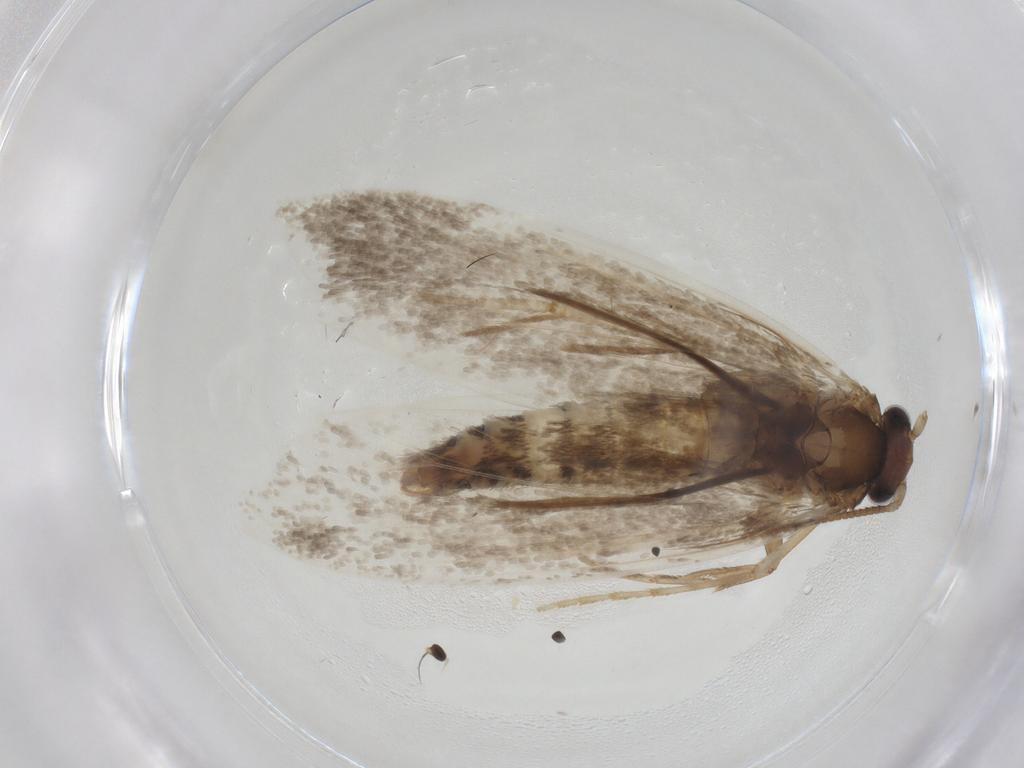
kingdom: Animalia
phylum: Arthropoda
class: Insecta
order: Lepidoptera
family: Tineidae
